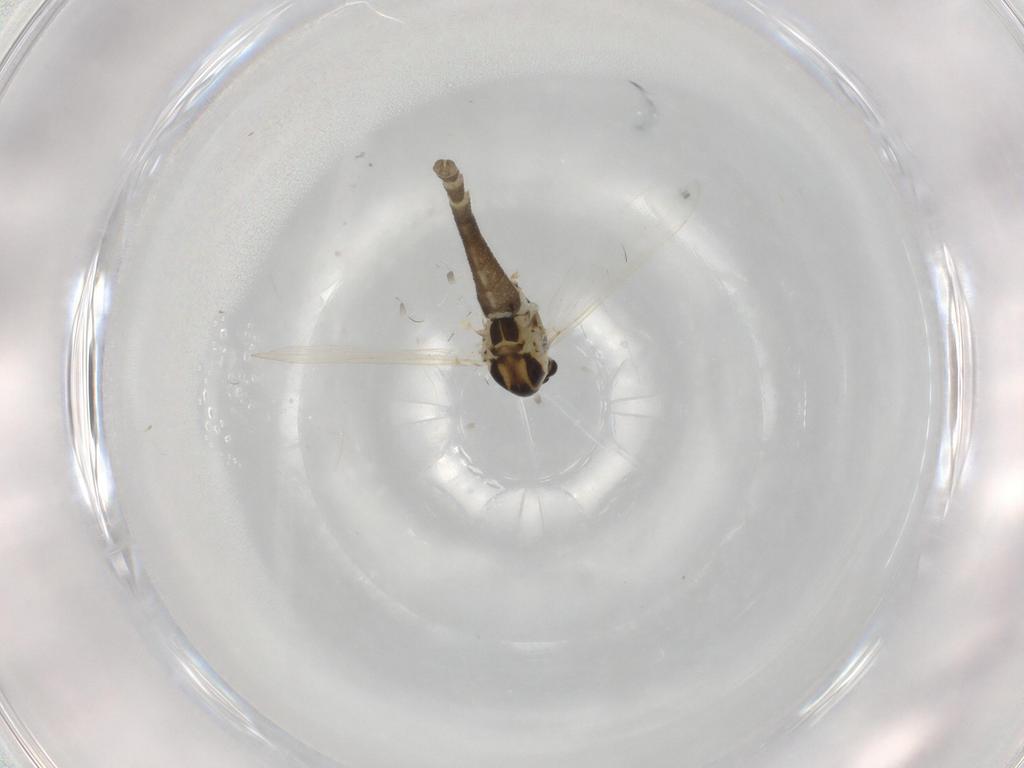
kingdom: Animalia
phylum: Arthropoda
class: Insecta
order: Diptera
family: Chironomidae
